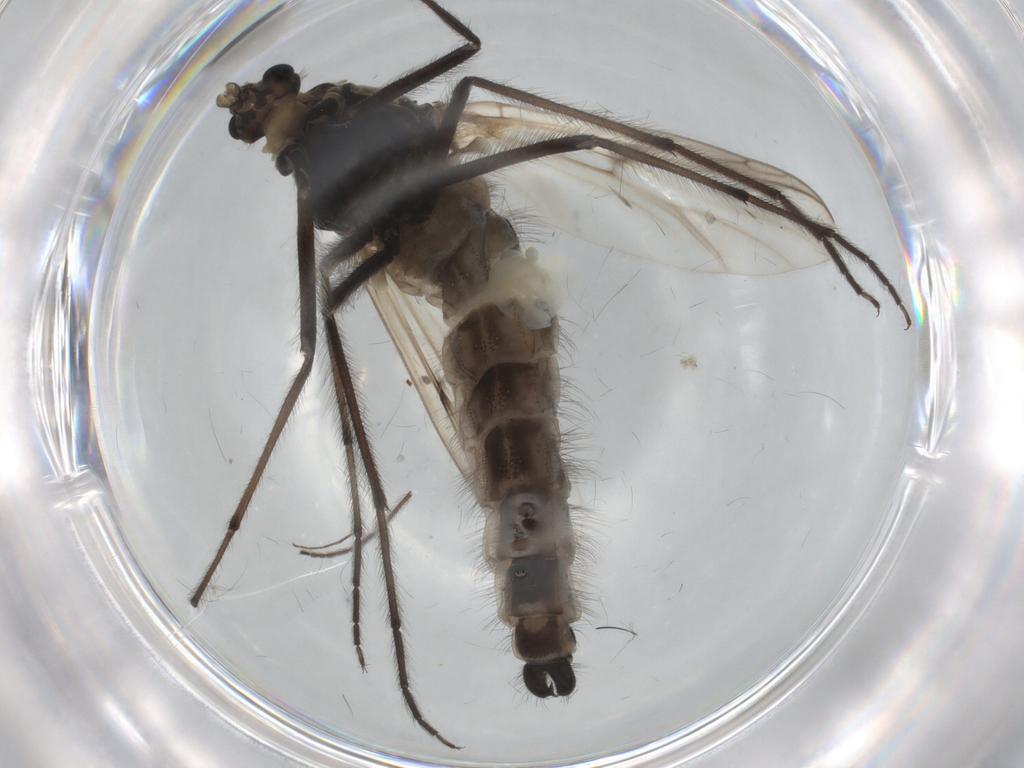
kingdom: Animalia
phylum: Arthropoda
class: Insecta
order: Diptera
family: Chironomidae
